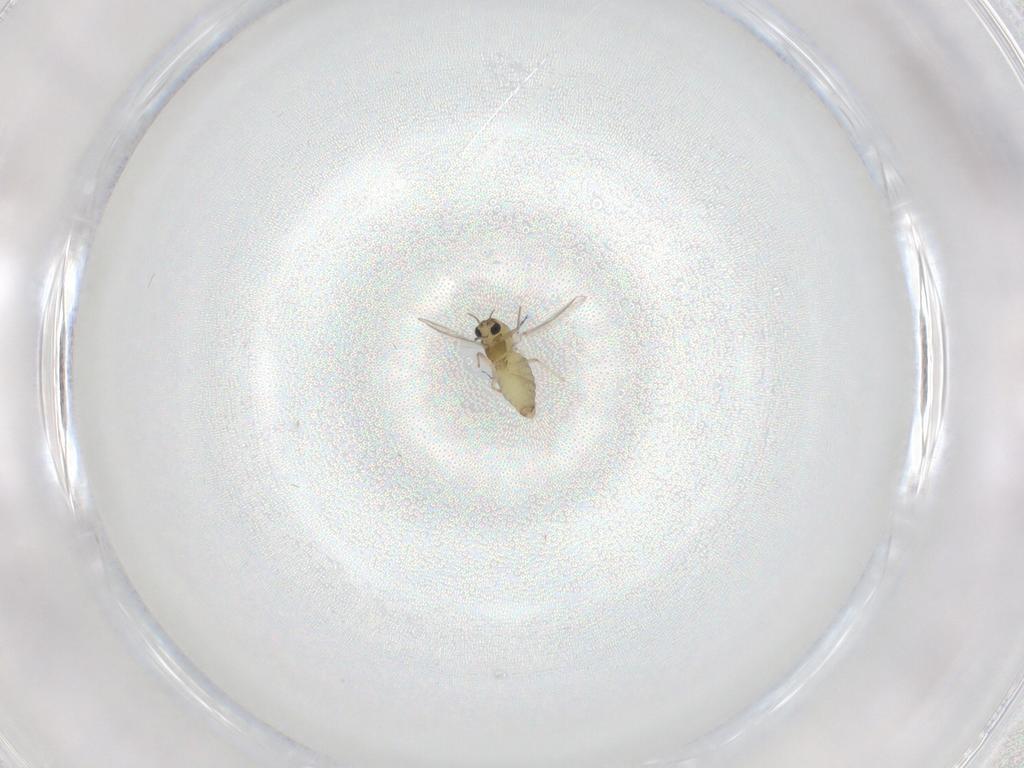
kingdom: Animalia
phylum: Arthropoda
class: Insecta
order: Diptera
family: Chironomidae
